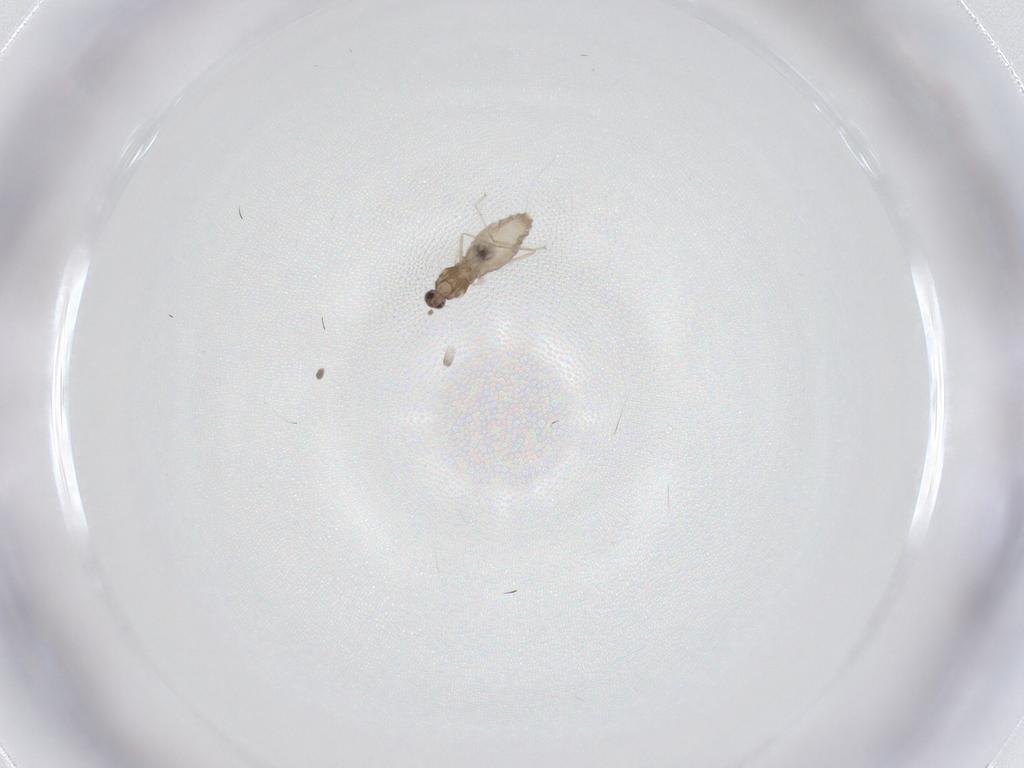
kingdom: Animalia
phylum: Arthropoda
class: Insecta
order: Diptera
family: Cecidomyiidae
